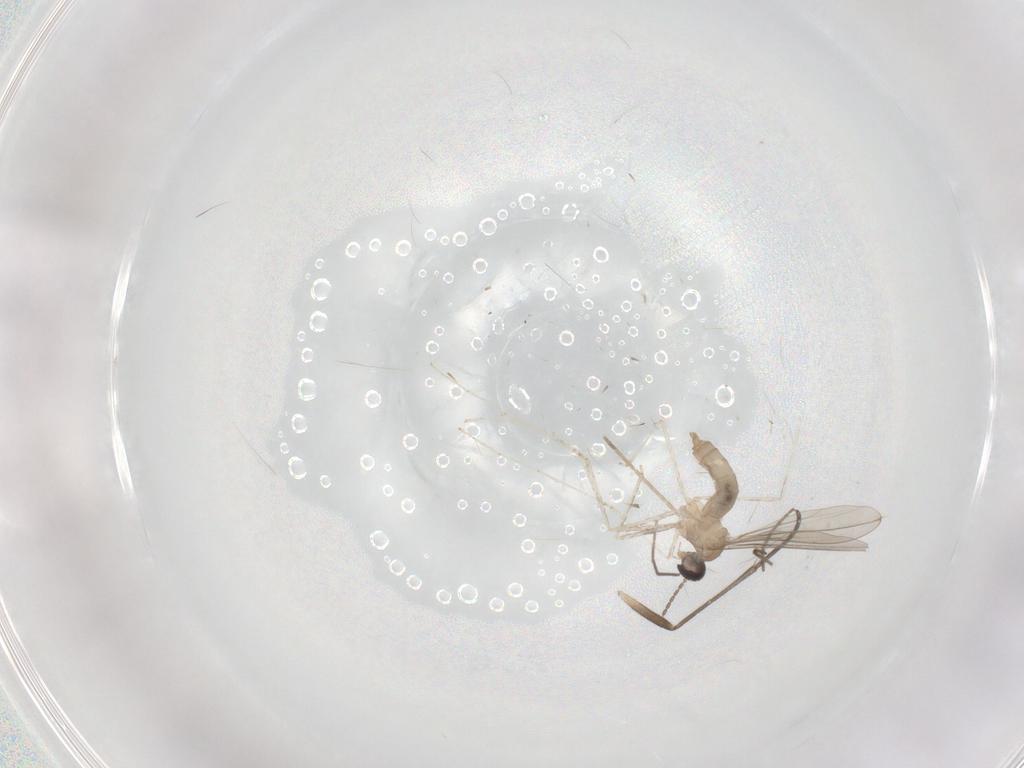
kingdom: Animalia
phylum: Arthropoda
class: Insecta
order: Diptera
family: Chironomidae
